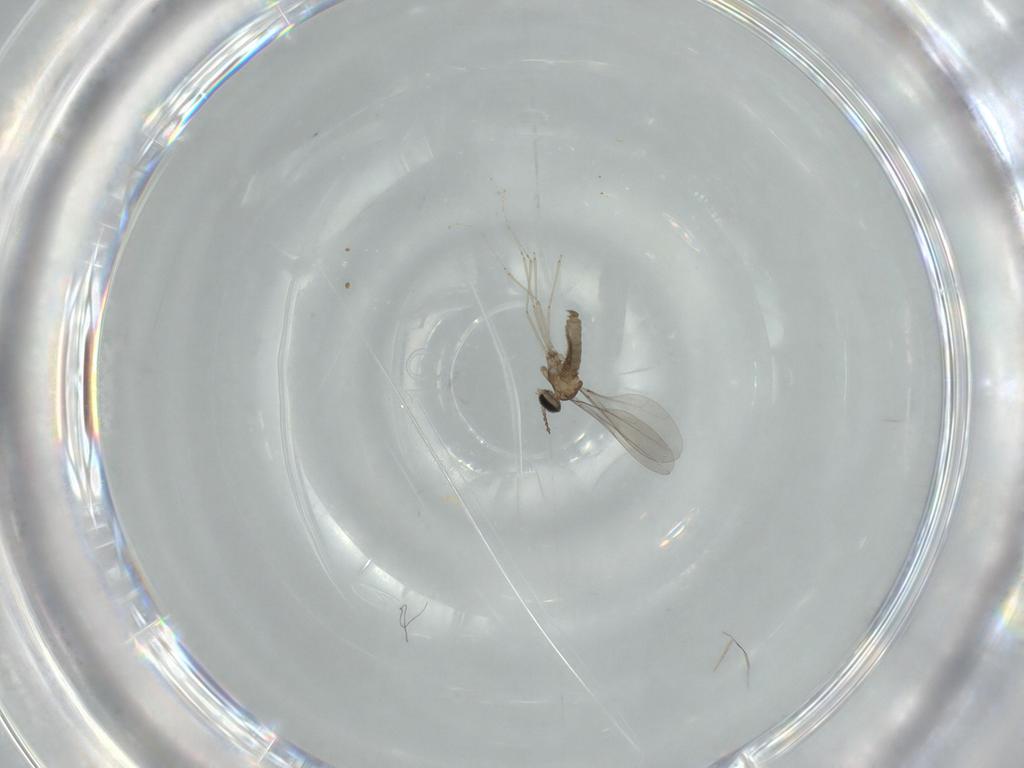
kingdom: Animalia
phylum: Arthropoda
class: Insecta
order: Diptera
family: Cecidomyiidae
